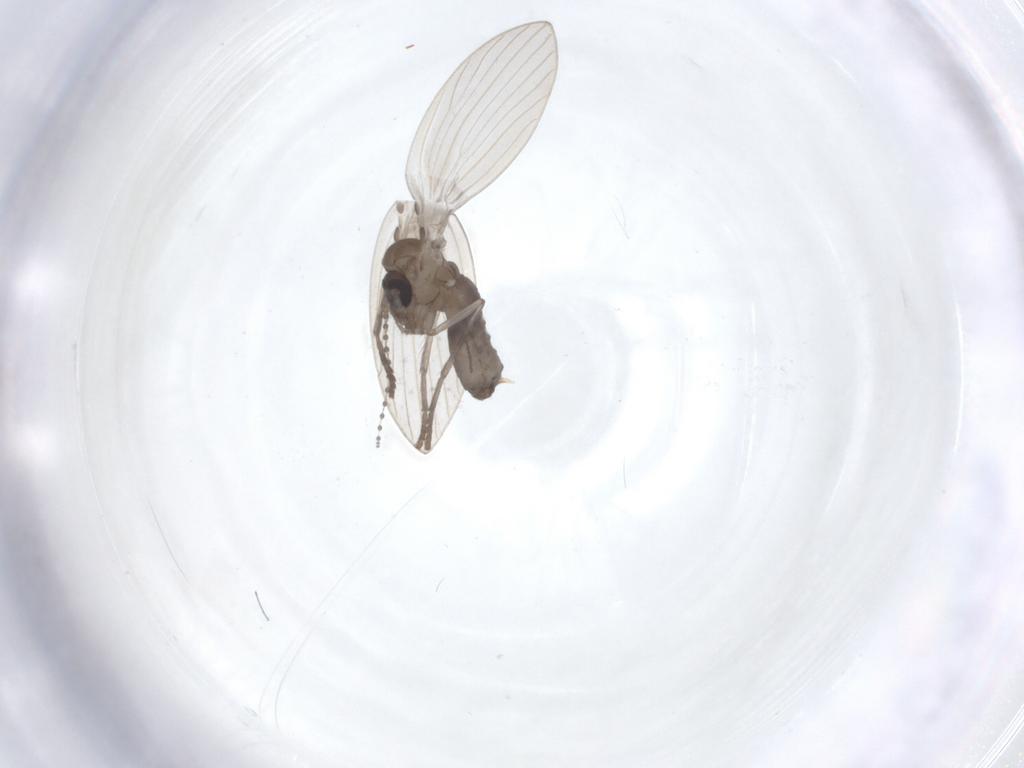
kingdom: Animalia
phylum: Arthropoda
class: Insecta
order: Diptera
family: Psychodidae
